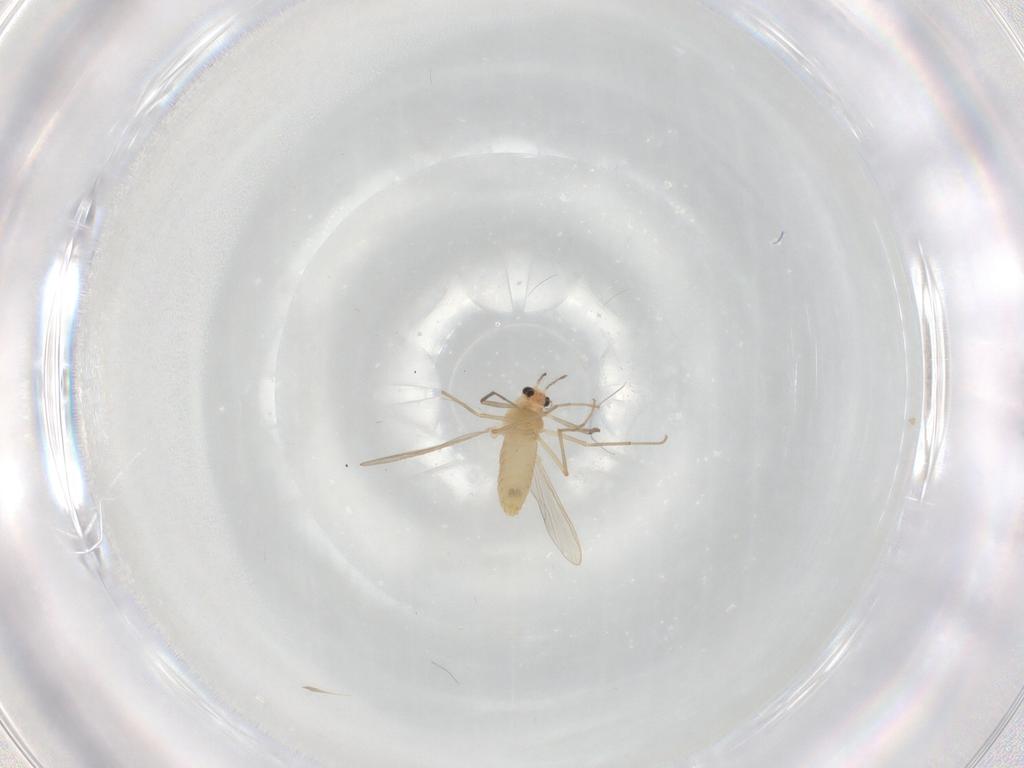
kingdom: Animalia
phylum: Arthropoda
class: Insecta
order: Diptera
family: Chironomidae
